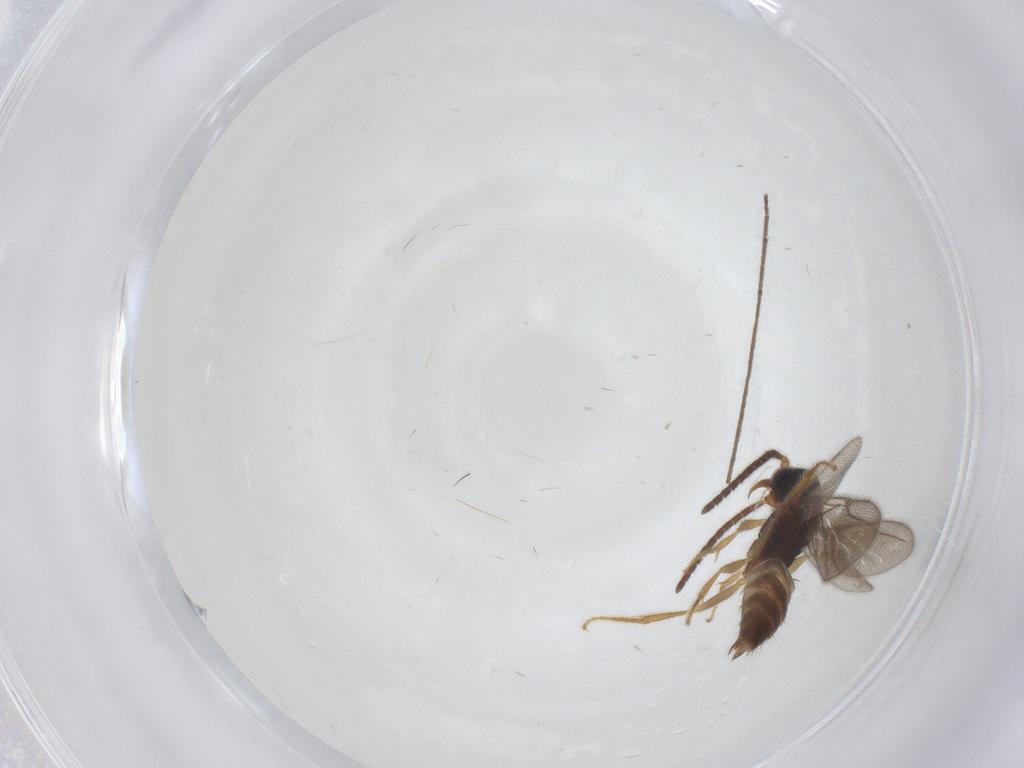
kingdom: Animalia
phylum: Arthropoda
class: Insecta
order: Hymenoptera
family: Bethylidae
